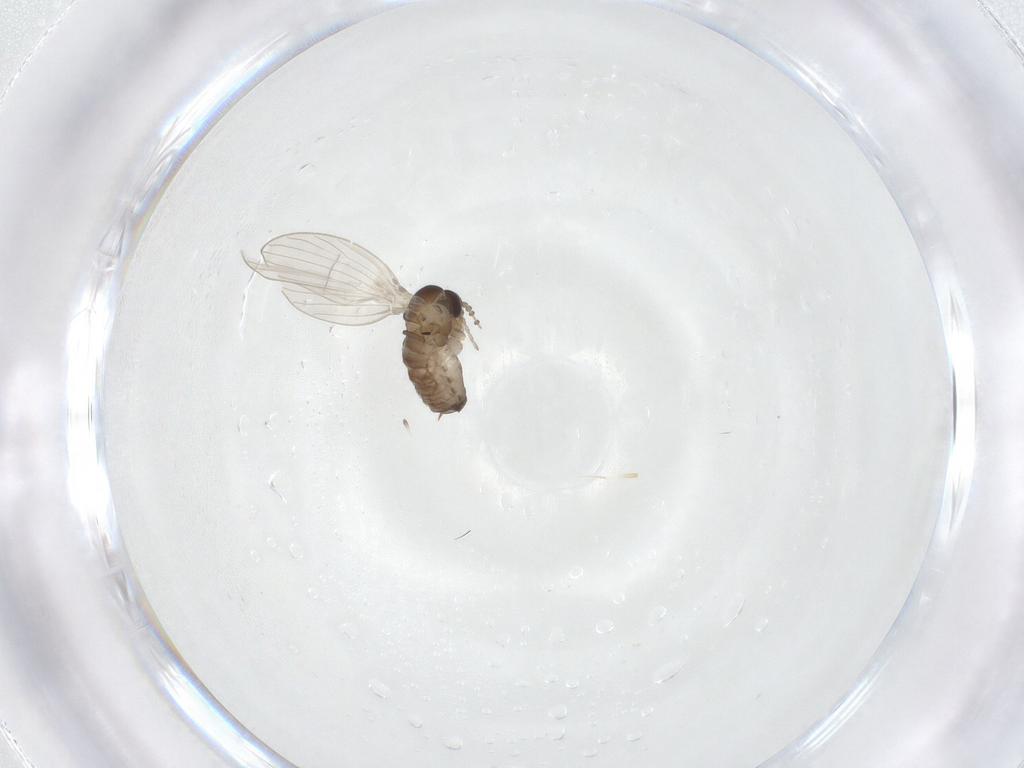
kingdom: Animalia
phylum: Arthropoda
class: Insecta
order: Diptera
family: Psychodidae
